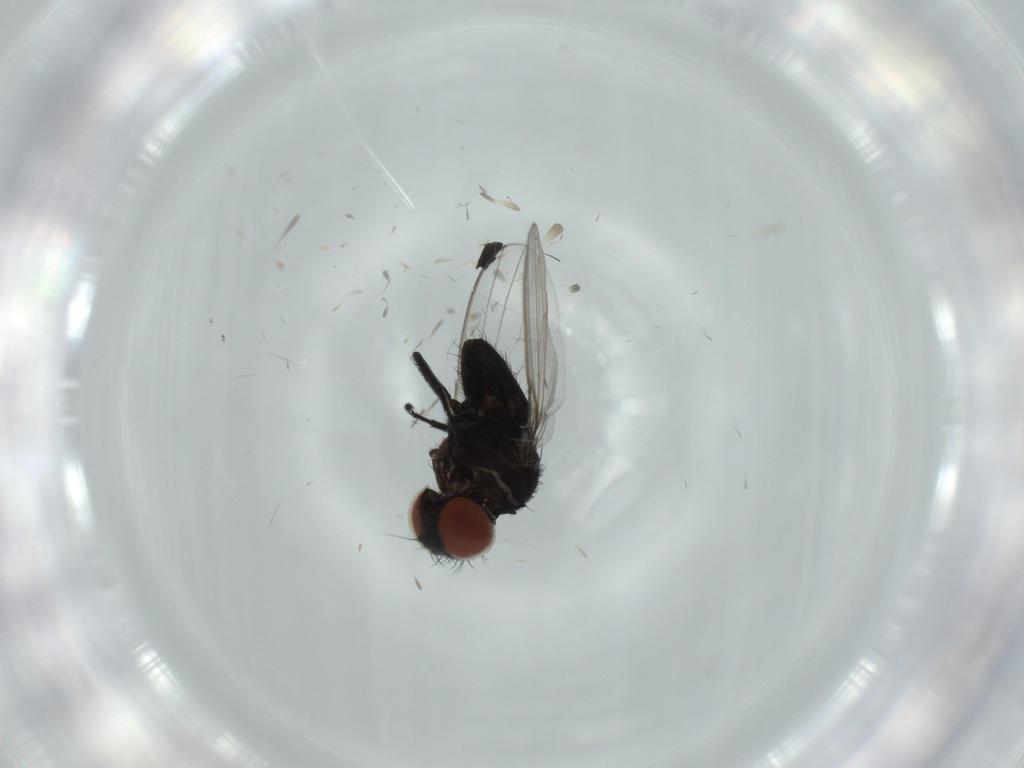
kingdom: Animalia
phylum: Arthropoda
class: Insecta
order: Diptera
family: Milichiidae
